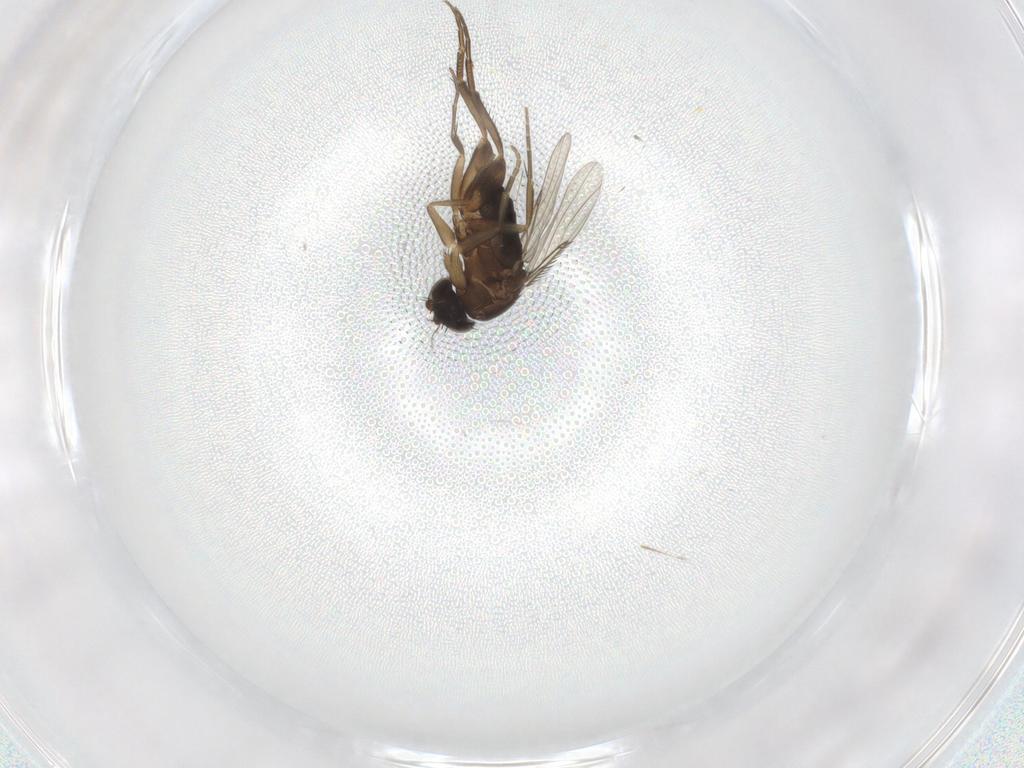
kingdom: Animalia
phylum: Arthropoda
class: Insecta
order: Diptera
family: Phoridae
